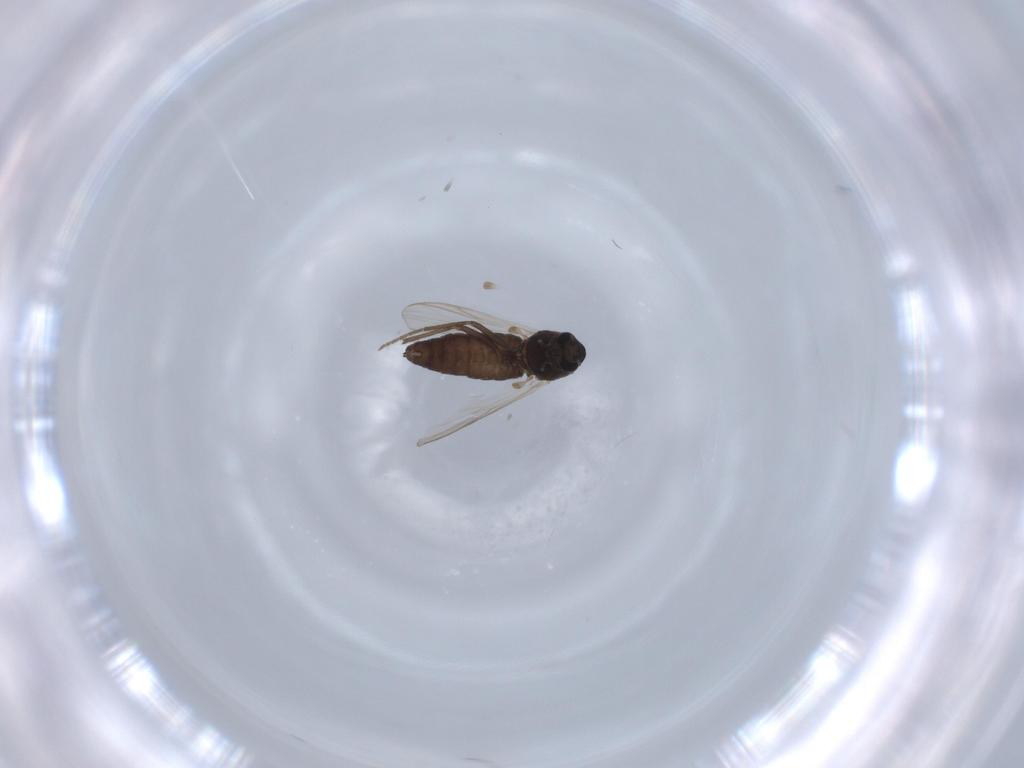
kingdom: Animalia
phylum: Arthropoda
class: Insecta
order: Diptera
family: Chironomidae
